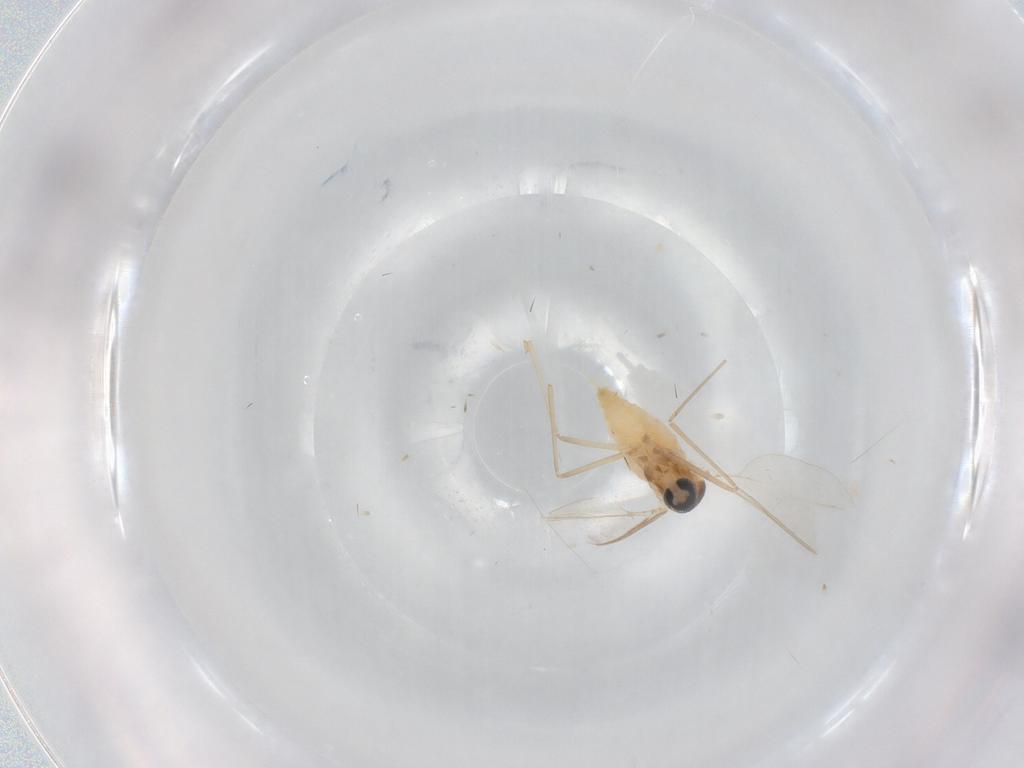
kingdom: Animalia
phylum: Arthropoda
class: Insecta
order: Diptera
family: Cecidomyiidae
